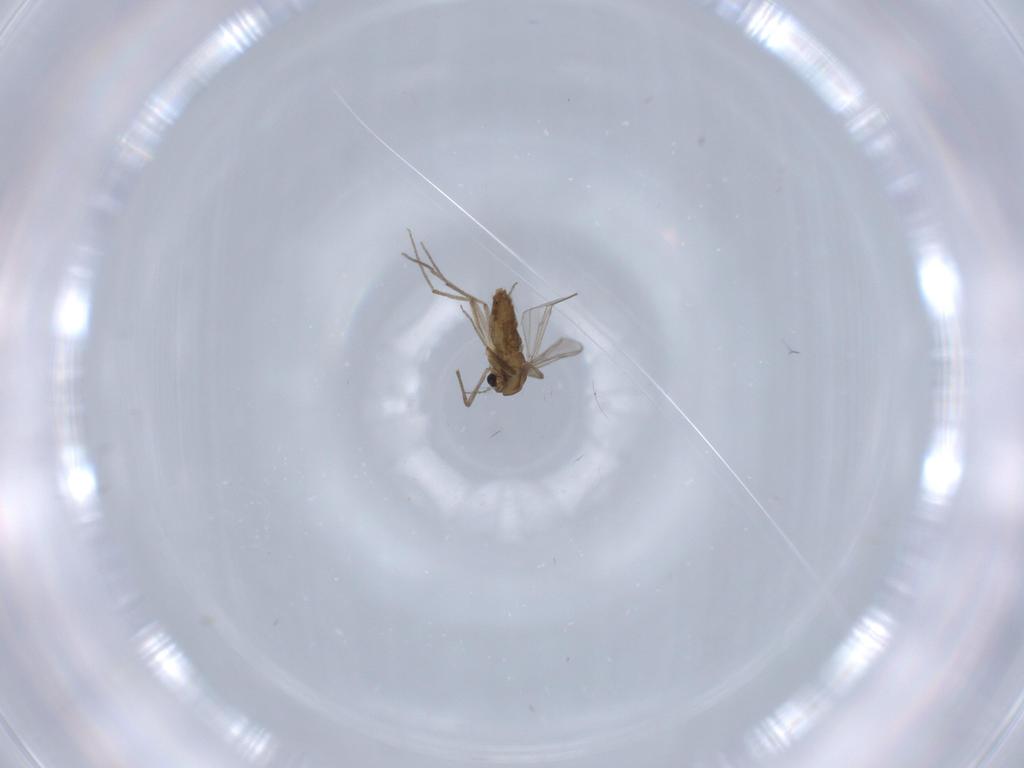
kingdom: Animalia
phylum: Arthropoda
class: Insecta
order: Diptera
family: Chironomidae
